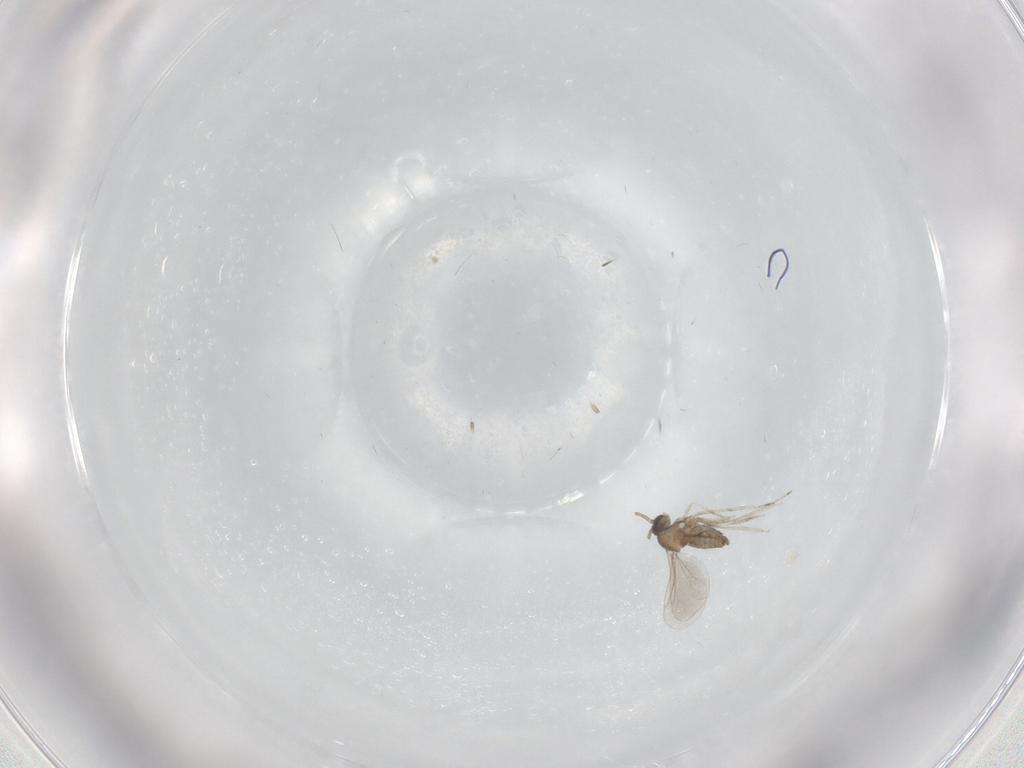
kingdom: Animalia
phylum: Arthropoda
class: Insecta
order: Diptera
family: Cecidomyiidae
